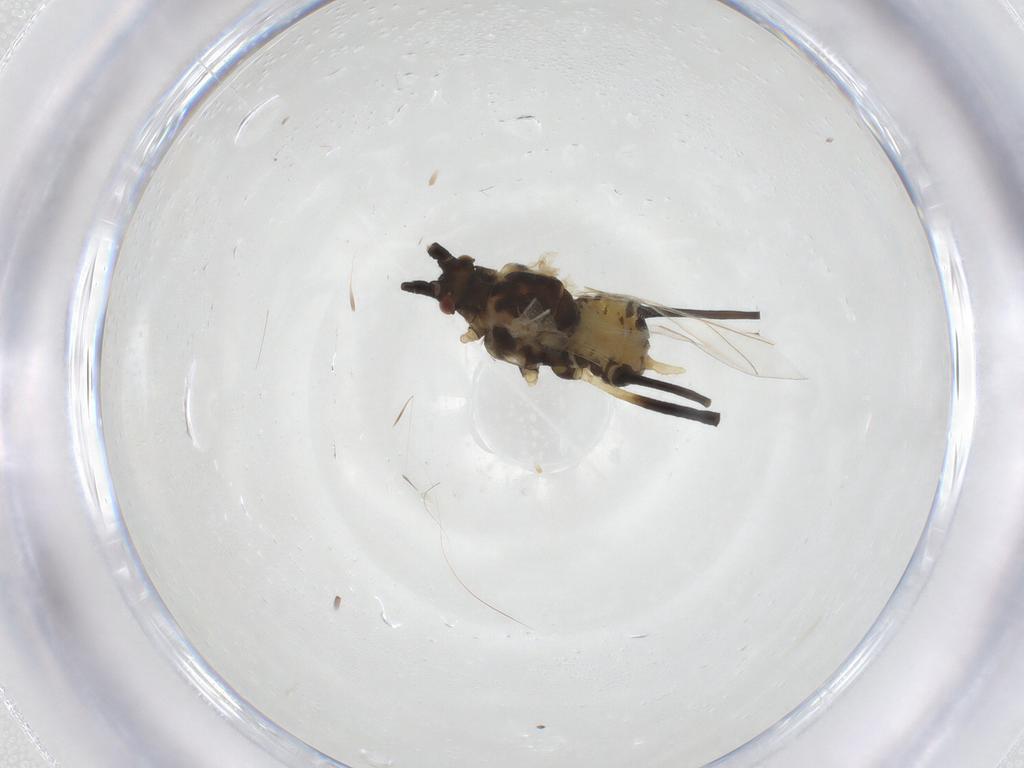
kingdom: Animalia
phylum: Arthropoda
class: Insecta
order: Hemiptera
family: Aphididae
